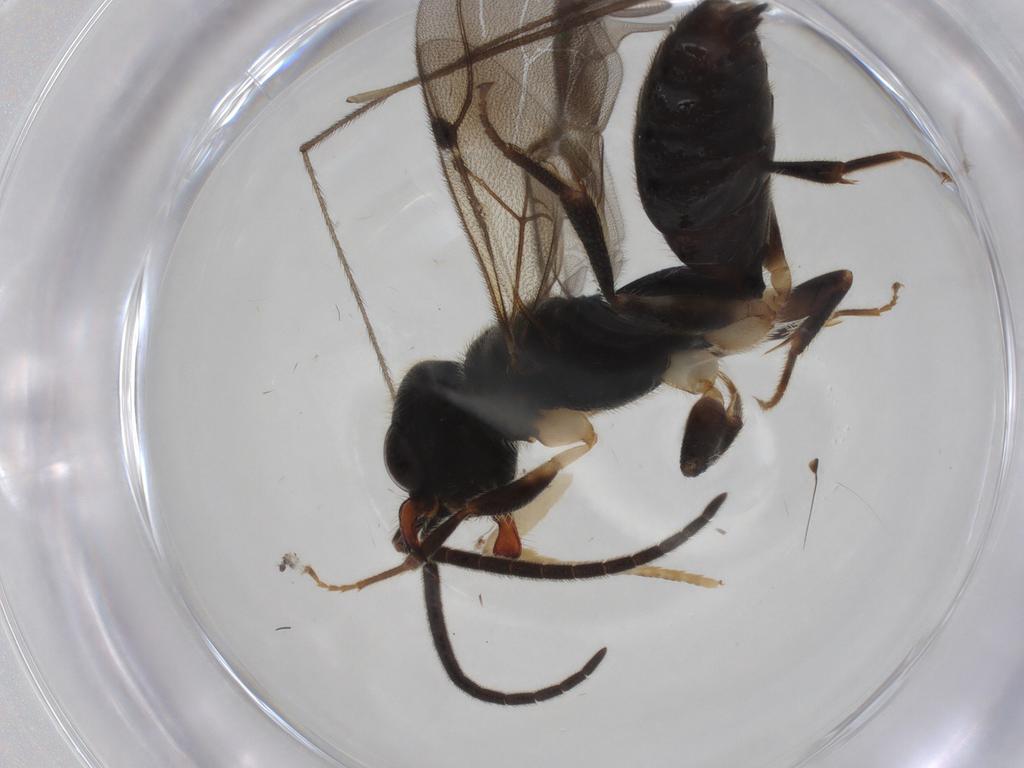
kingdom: Animalia
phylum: Arthropoda
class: Insecta
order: Hymenoptera
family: Bethylidae
